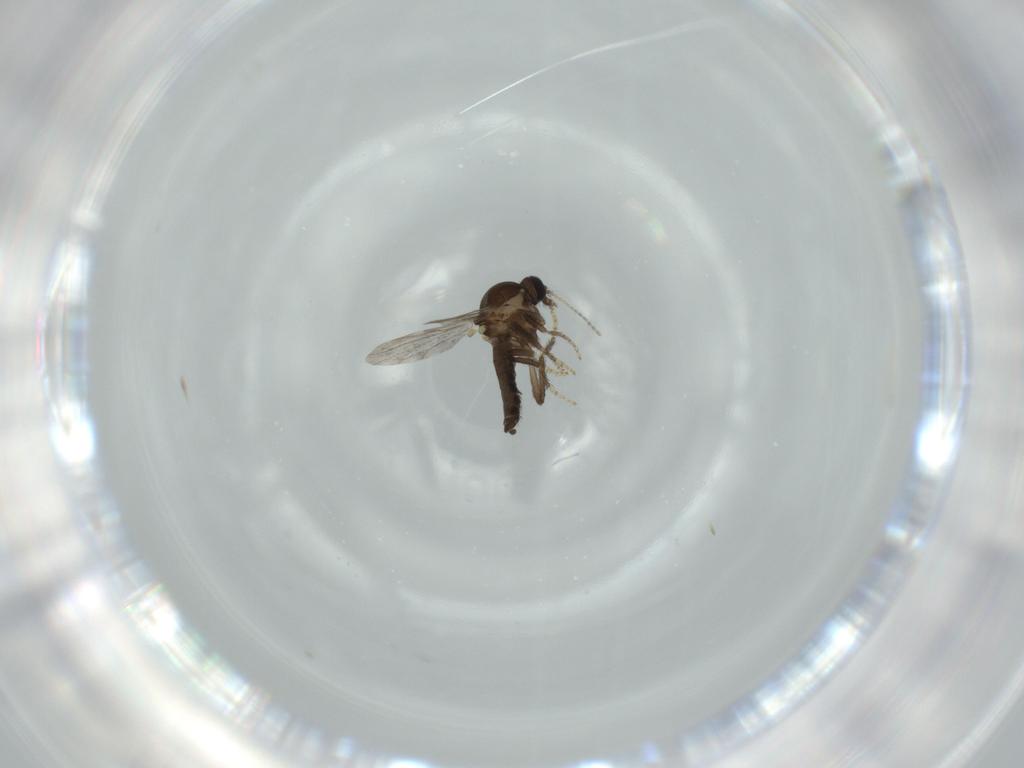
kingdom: Animalia
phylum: Arthropoda
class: Insecta
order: Diptera
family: Ceratopogonidae
